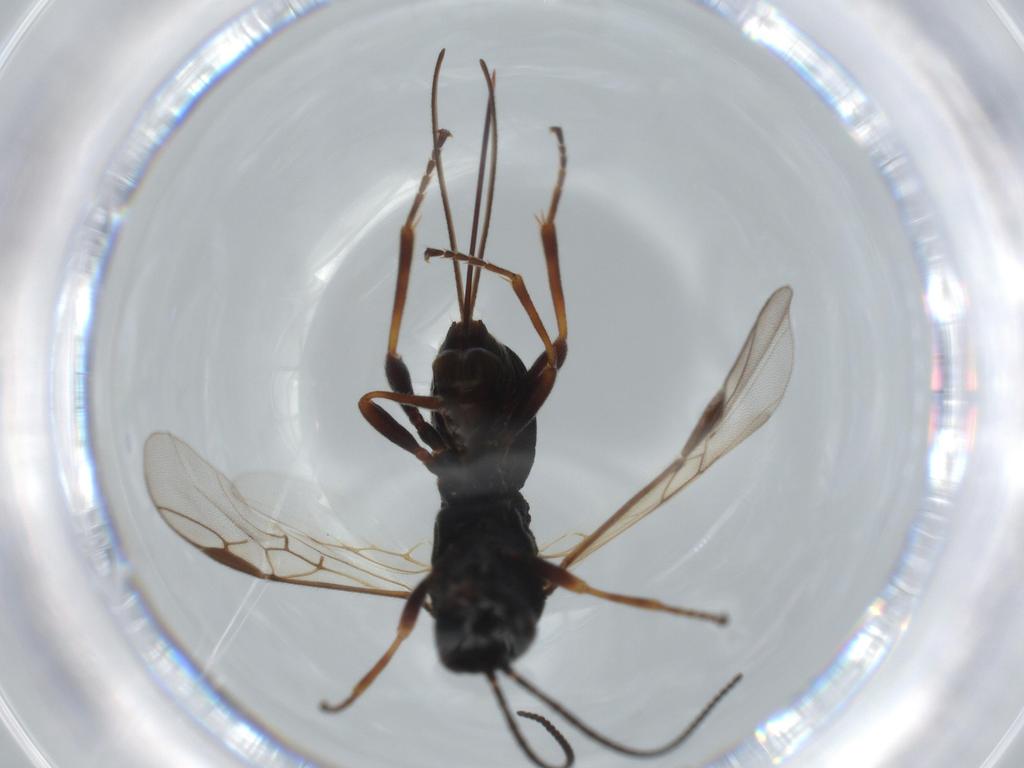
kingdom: Animalia
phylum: Arthropoda
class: Insecta
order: Hymenoptera
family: Braconidae
